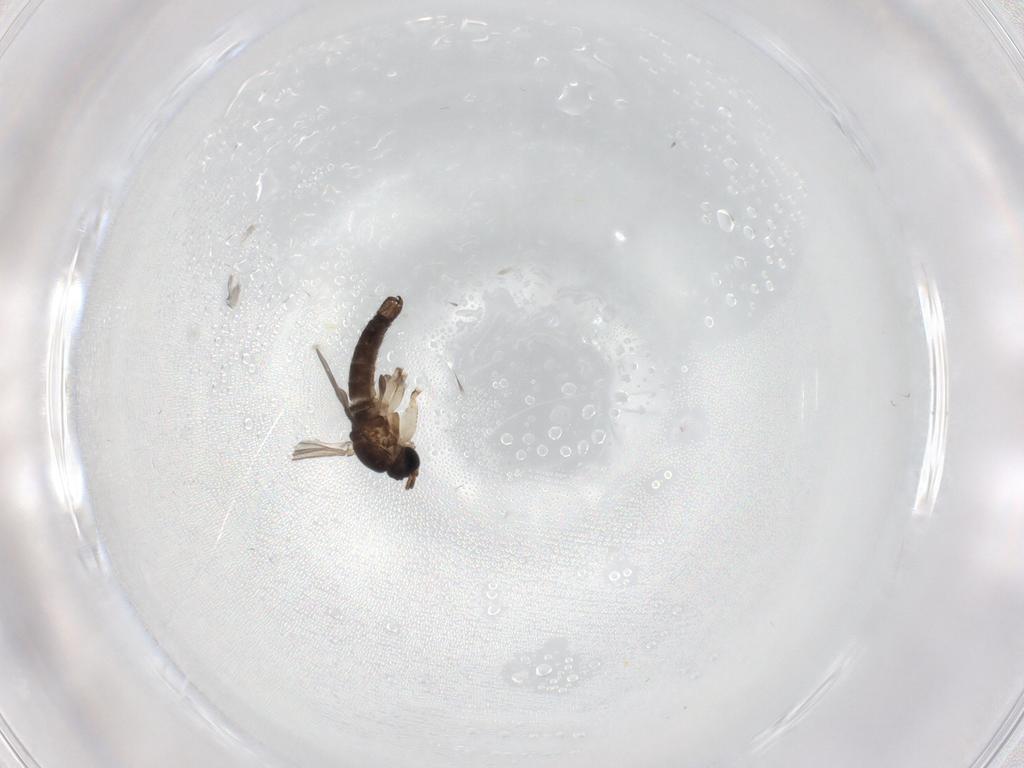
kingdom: Animalia
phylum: Arthropoda
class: Insecta
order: Diptera
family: Sciaridae
